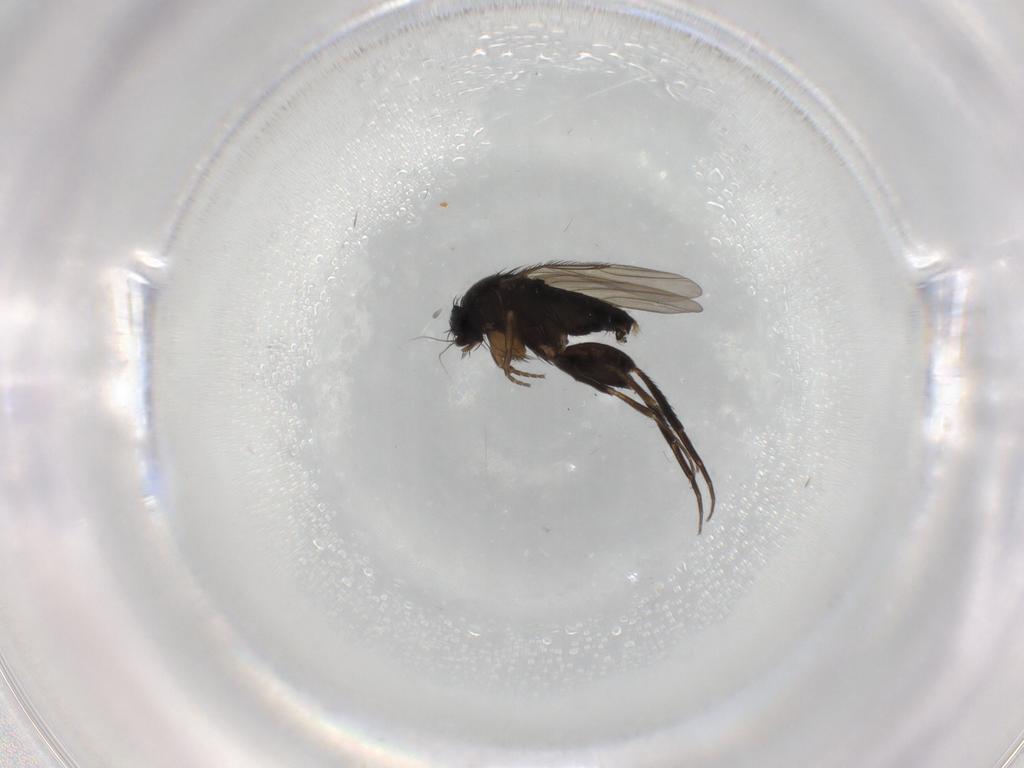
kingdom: Animalia
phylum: Arthropoda
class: Insecta
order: Diptera
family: Phoridae
